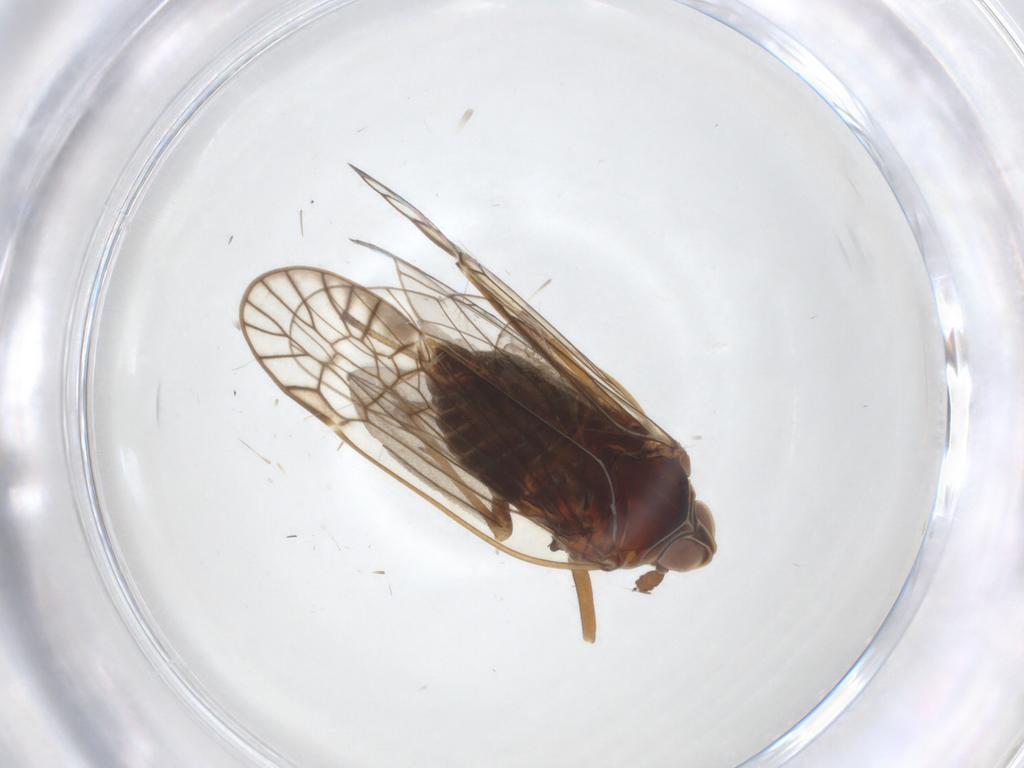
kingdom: Animalia
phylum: Arthropoda
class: Insecta
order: Hemiptera
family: Kinnaridae
